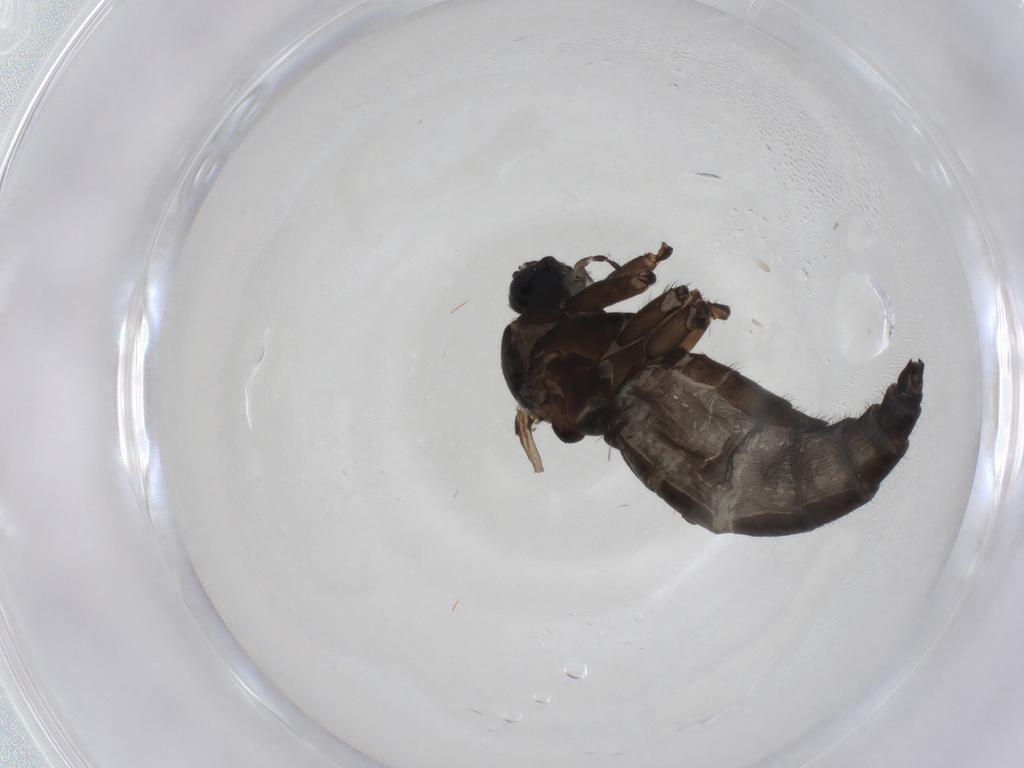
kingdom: Animalia
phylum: Arthropoda
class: Insecta
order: Diptera
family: Sciaridae
